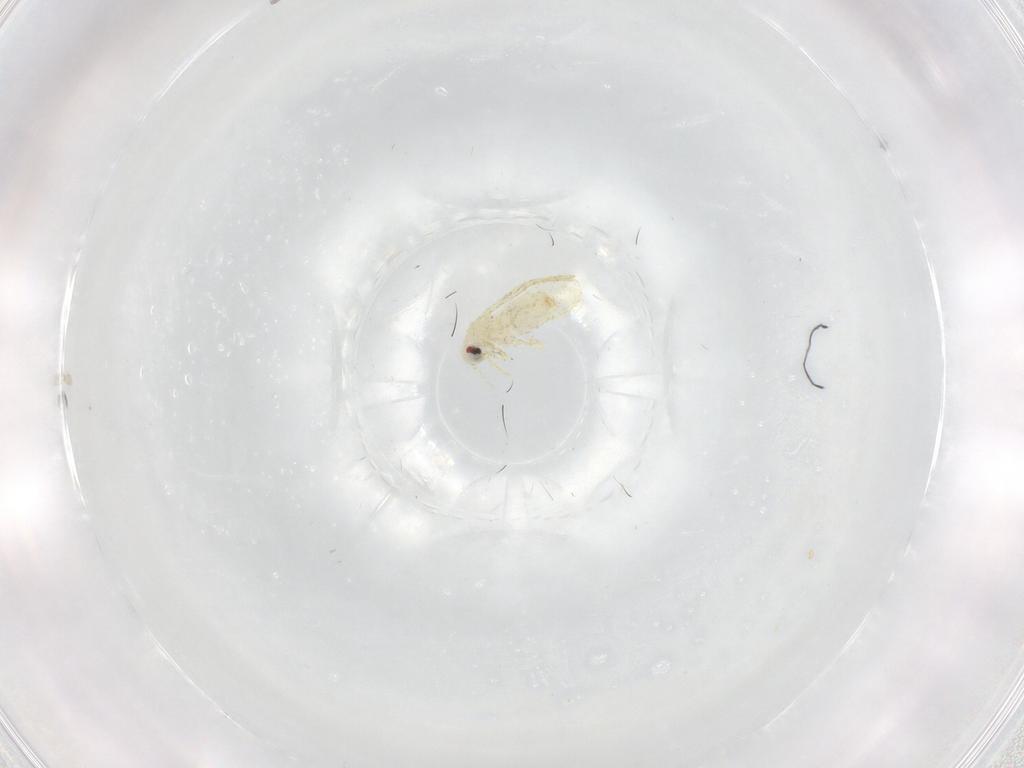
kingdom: Animalia
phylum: Arthropoda
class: Insecta
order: Hemiptera
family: Aleyrodidae
